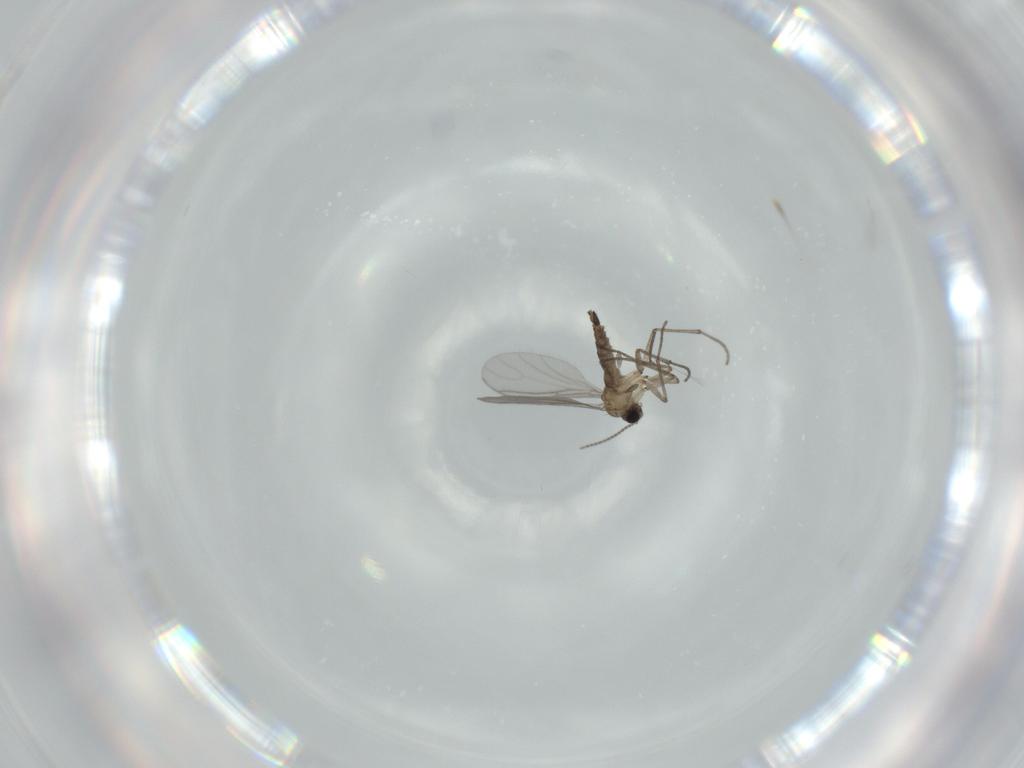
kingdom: Animalia
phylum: Arthropoda
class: Insecta
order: Diptera
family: Sciaridae
